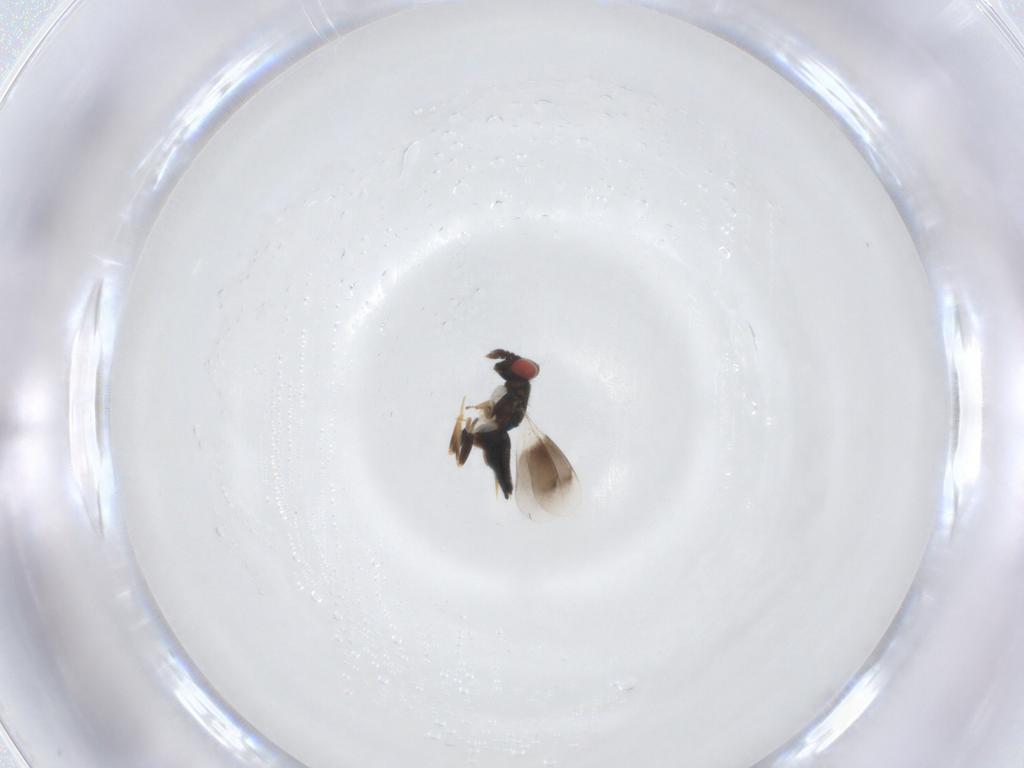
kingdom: Animalia
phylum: Arthropoda
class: Insecta
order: Hymenoptera
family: Eulophidae
